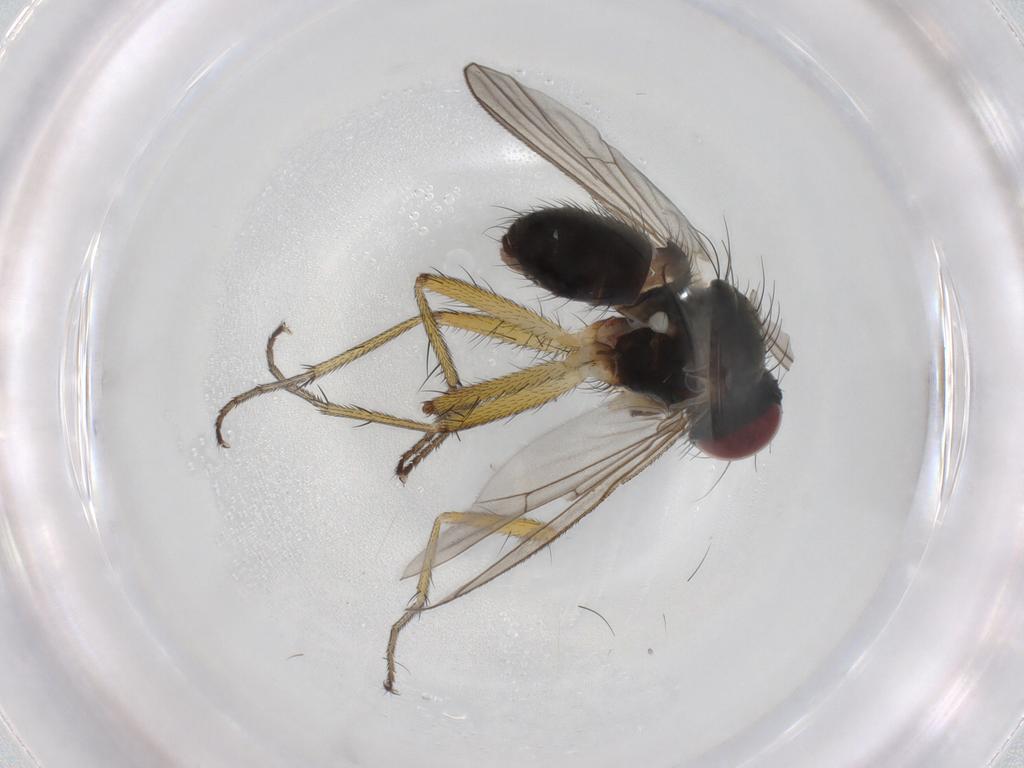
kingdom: Animalia
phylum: Arthropoda
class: Insecta
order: Diptera
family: Muscidae
